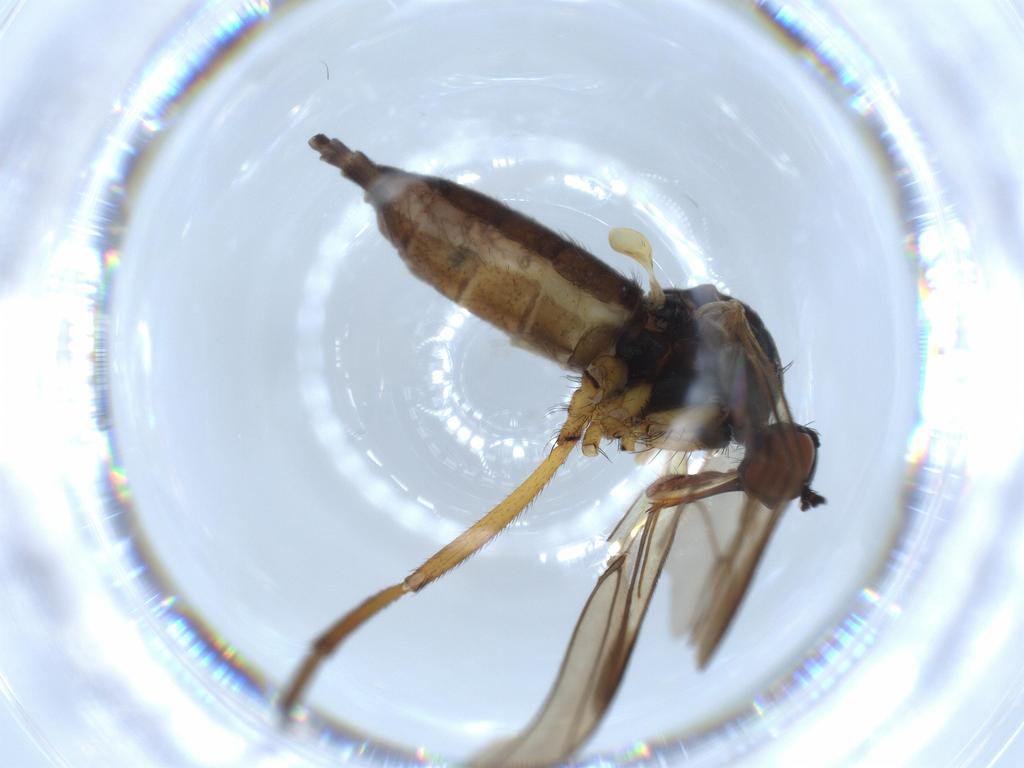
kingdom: Animalia
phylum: Arthropoda
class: Insecta
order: Diptera
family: Empididae
